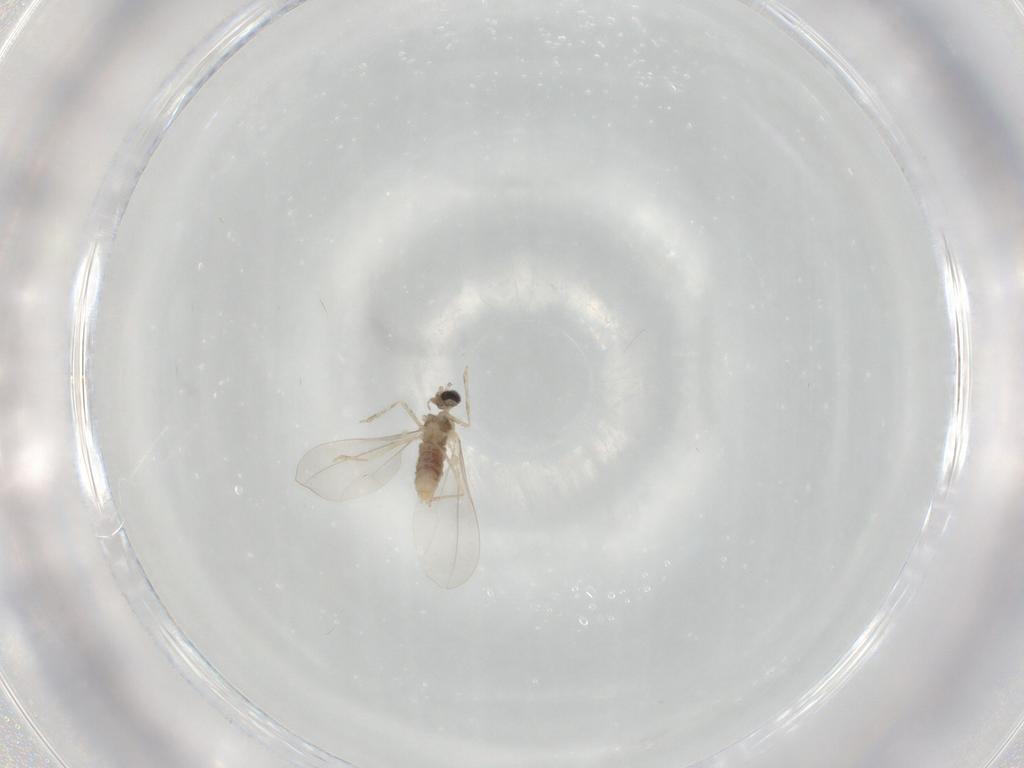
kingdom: Animalia
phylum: Arthropoda
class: Insecta
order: Diptera
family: Cecidomyiidae
